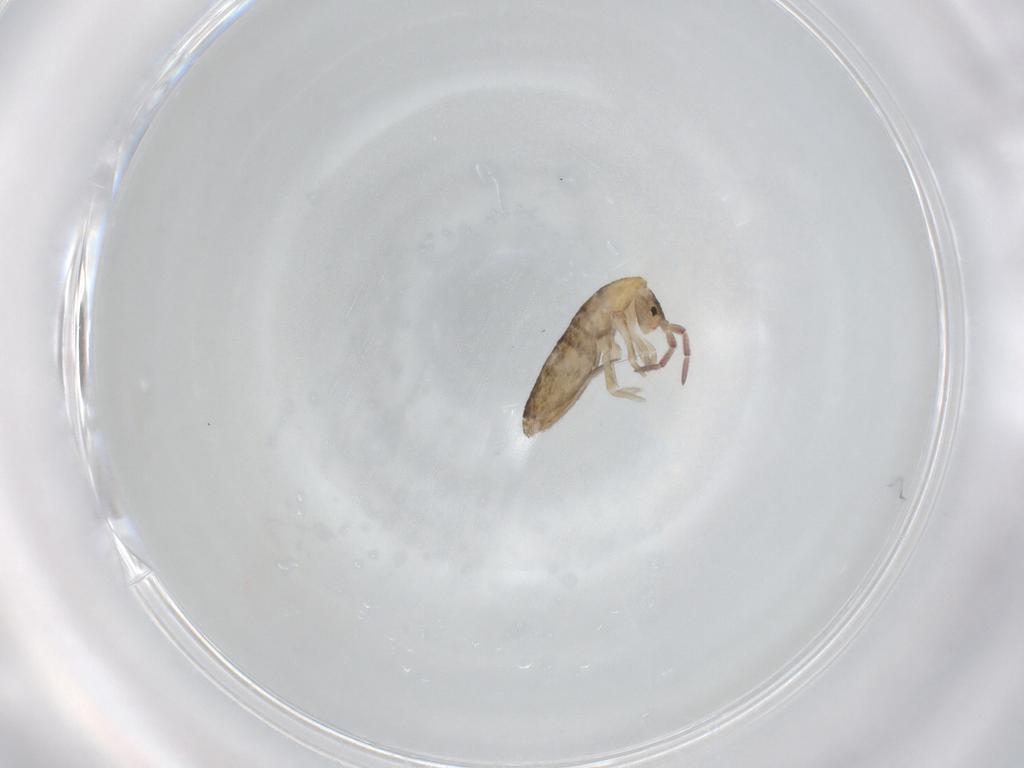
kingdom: Animalia
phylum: Arthropoda
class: Collembola
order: Entomobryomorpha
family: Entomobryidae
